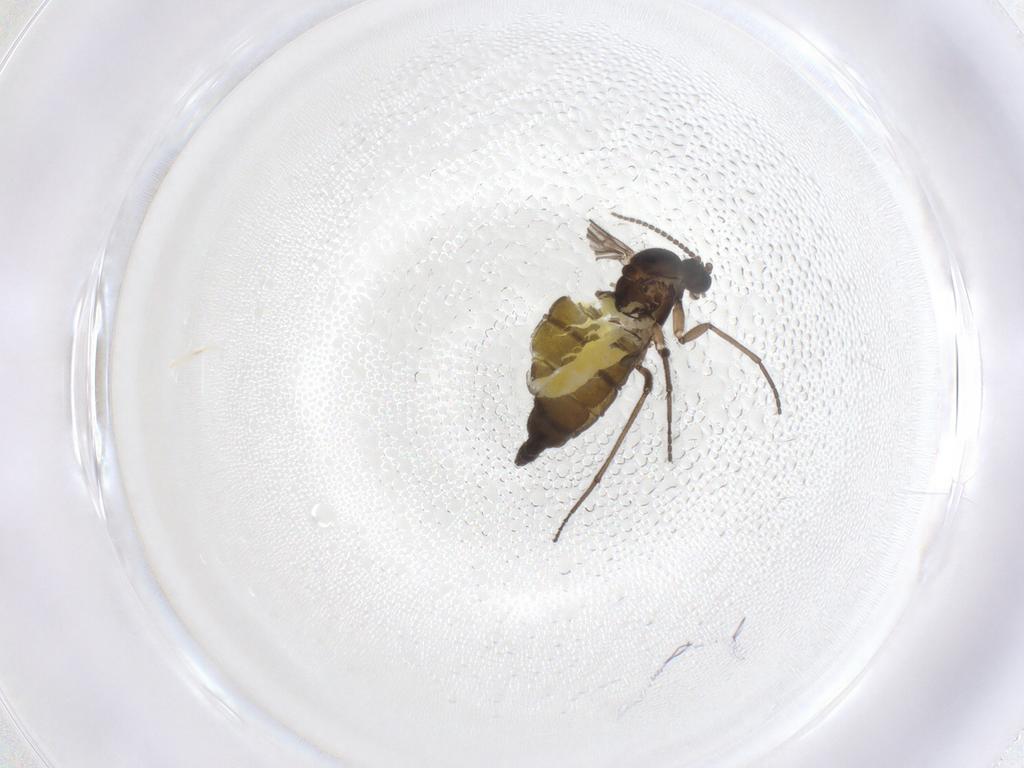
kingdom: Animalia
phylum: Arthropoda
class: Insecta
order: Diptera
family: Sciaridae
